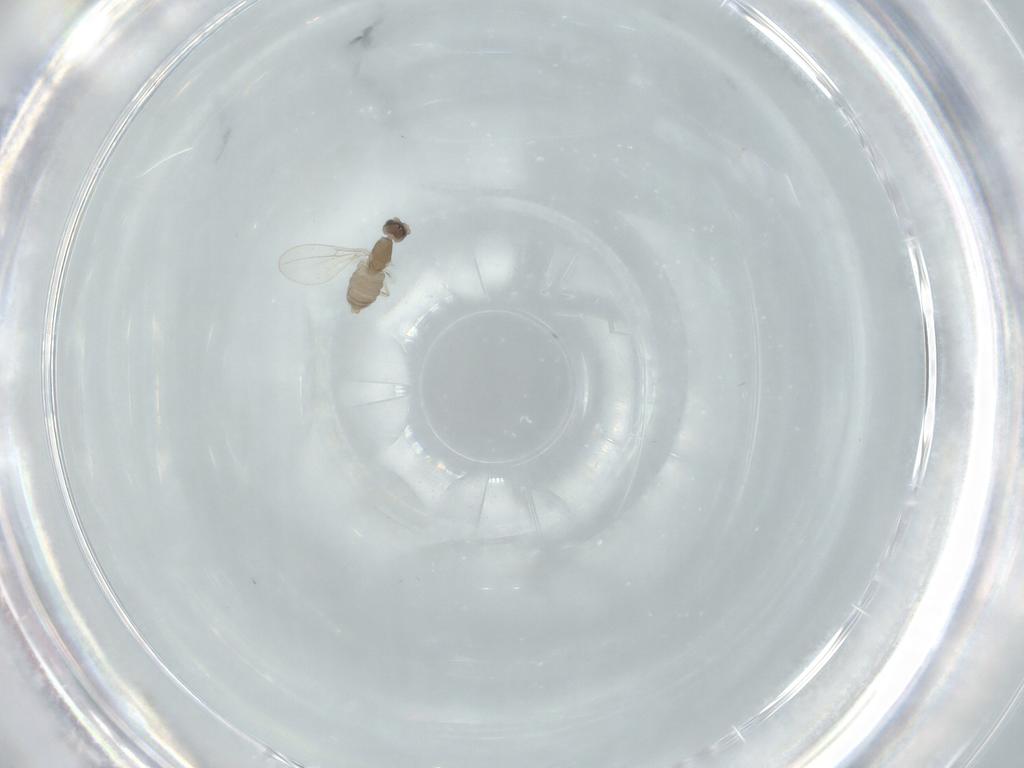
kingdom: Animalia
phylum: Arthropoda
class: Insecta
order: Diptera
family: Cecidomyiidae
